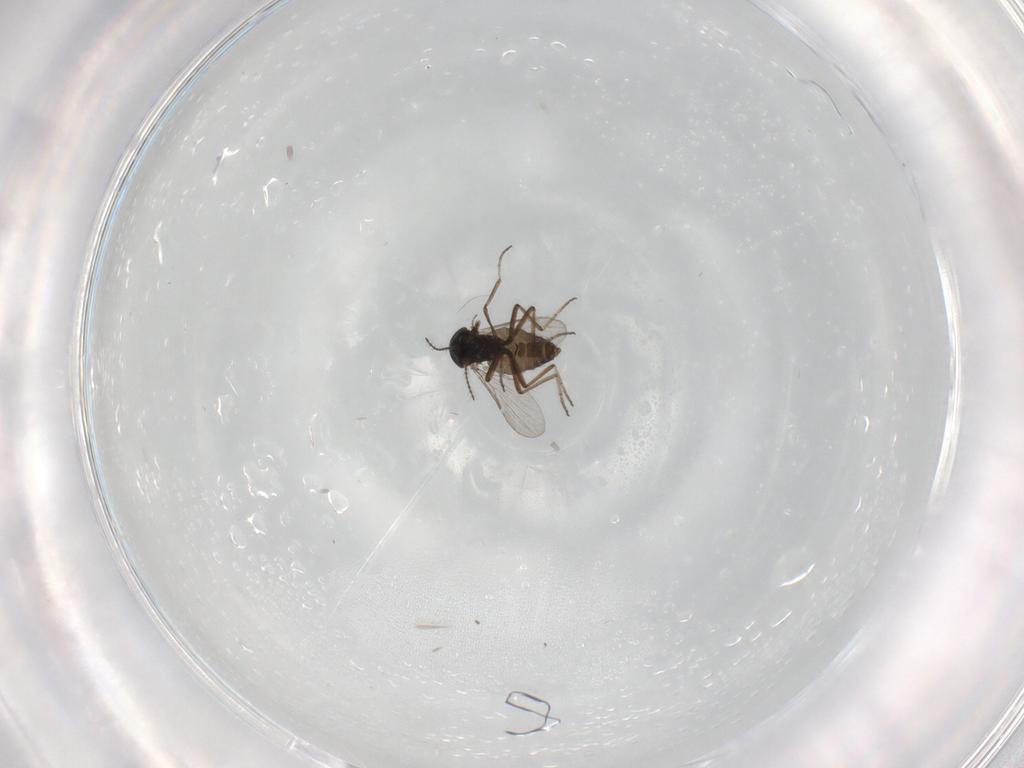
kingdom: Animalia
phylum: Arthropoda
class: Insecta
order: Diptera
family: Ceratopogonidae
